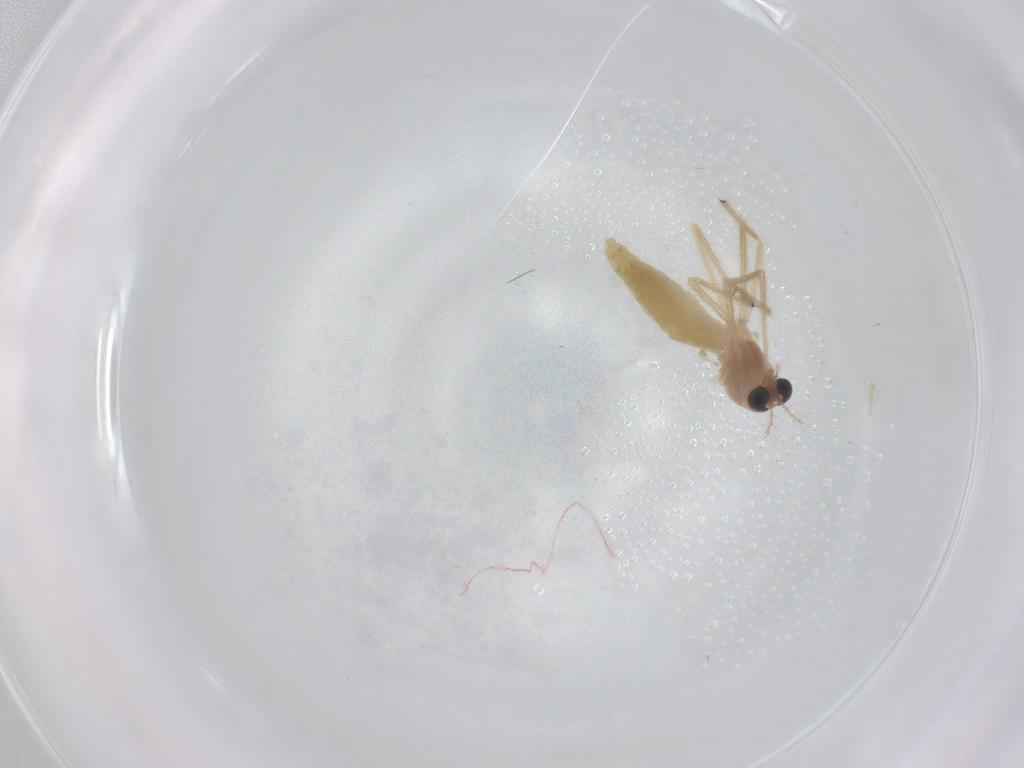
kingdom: Animalia
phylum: Arthropoda
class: Insecta
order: Diptera
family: Chironomidae
